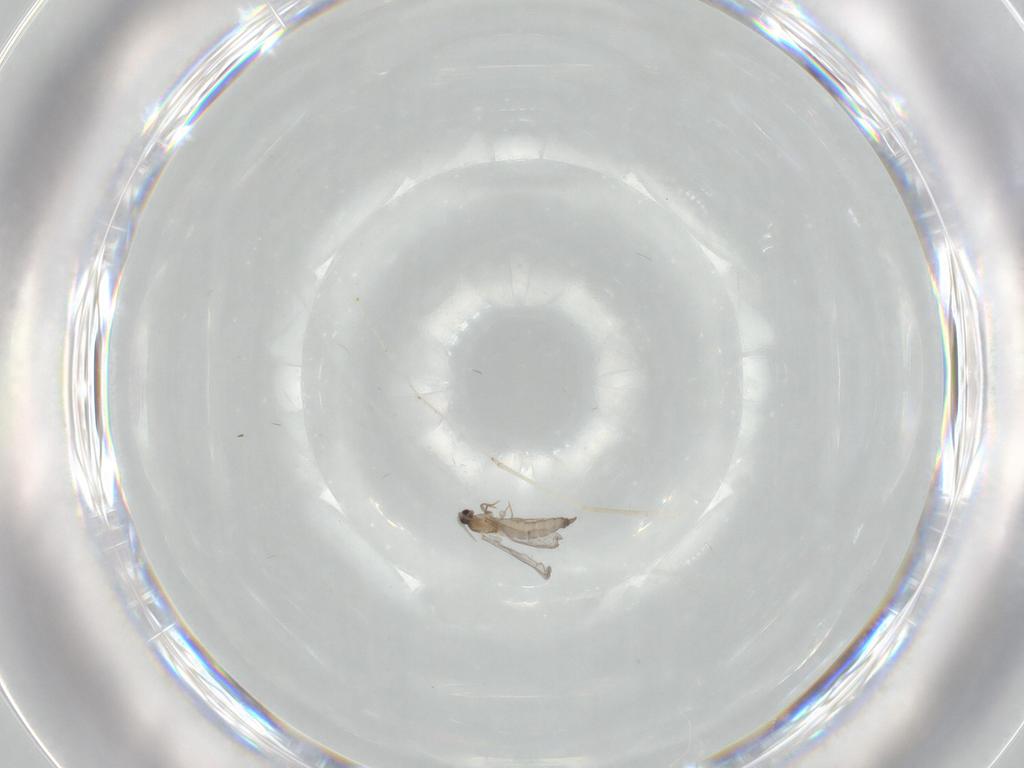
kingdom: Animalia
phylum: Arthropoda
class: Insecta
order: Diptera
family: Cecidomyiidae
